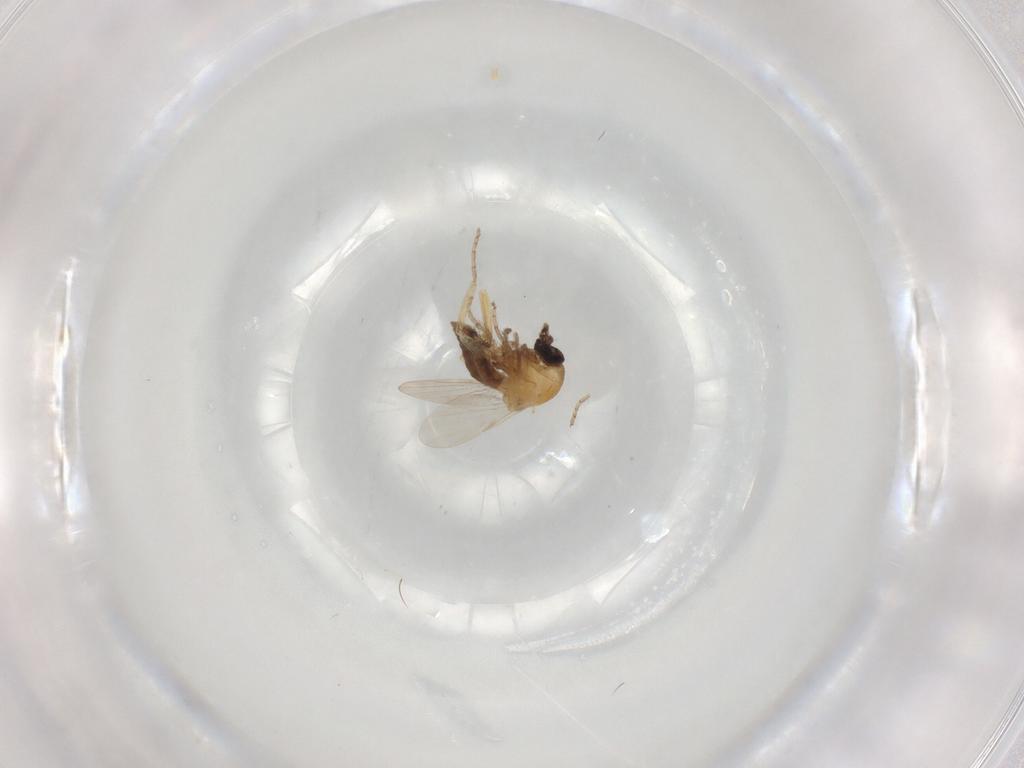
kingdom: Animalia
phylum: Arthropoda
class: Insecta
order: Diptera
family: Ceratopogonidae
